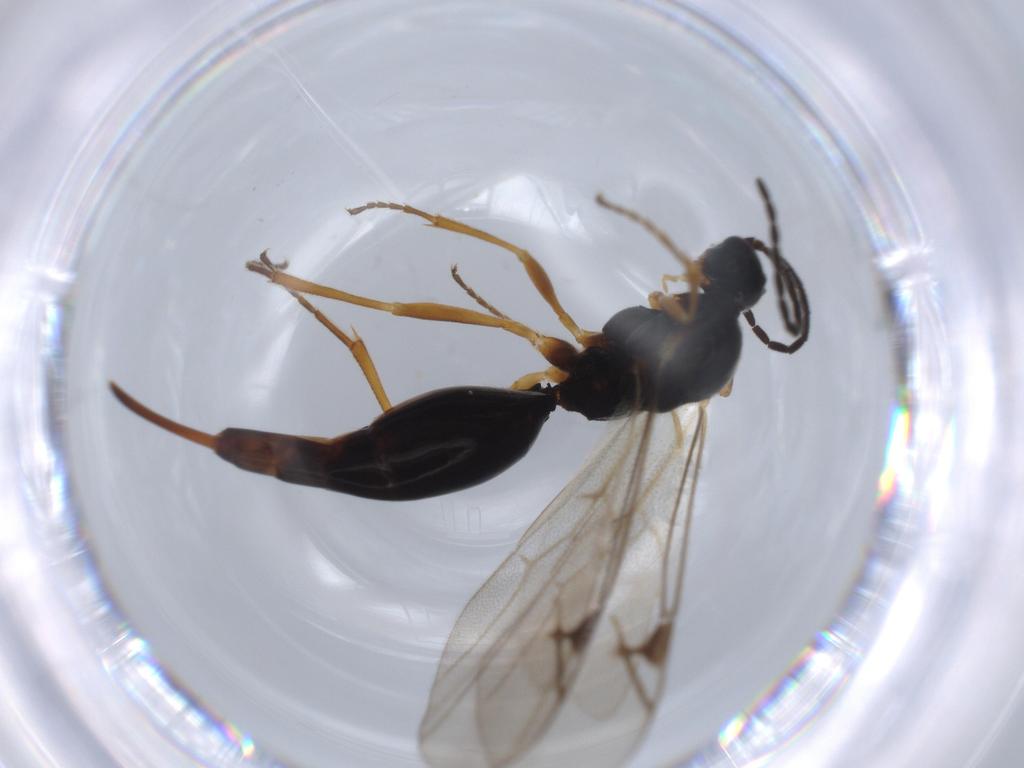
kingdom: Animalia
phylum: Arthropoda
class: Insecta
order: Hymenoptera
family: Proctotrupidae
